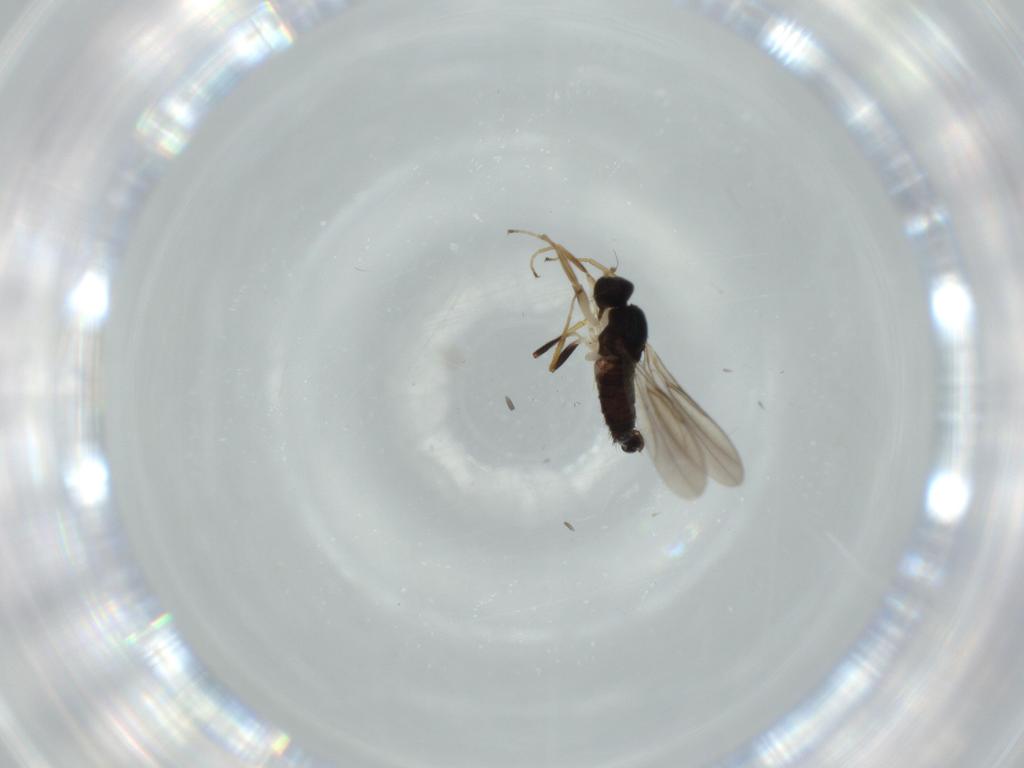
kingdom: Animalia
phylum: Arthropoda
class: Insecta
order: Diptera
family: Hybotidae
